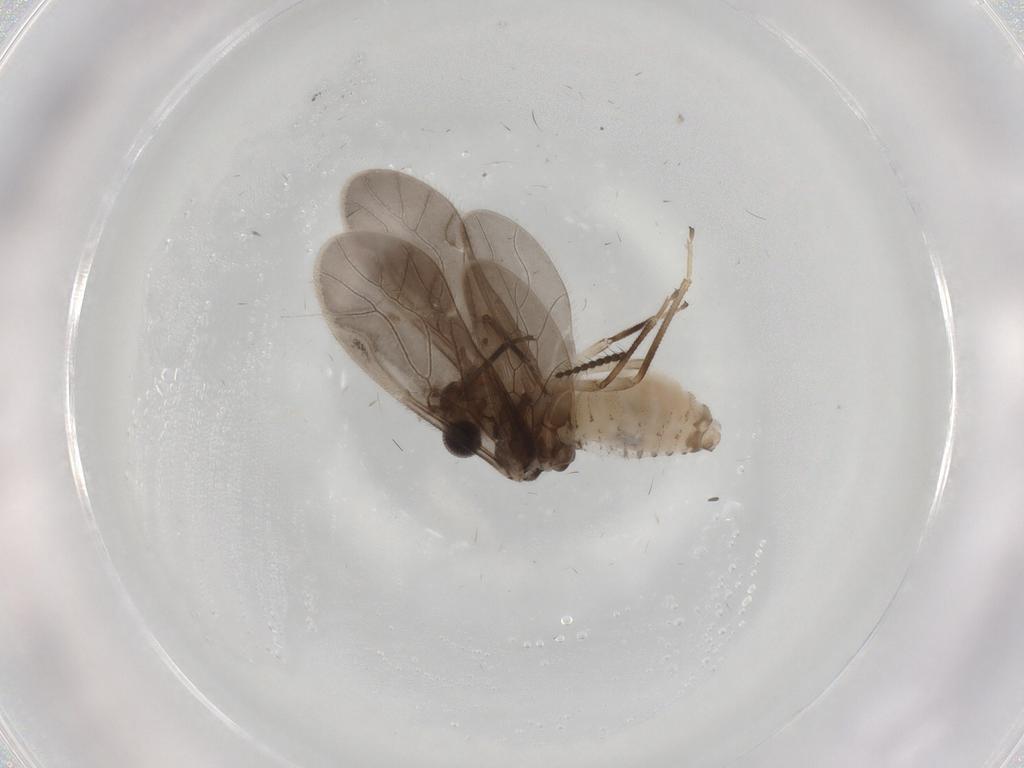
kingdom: Animalia
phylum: Arthropoda
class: Insecta
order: Psocodea
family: Caeciliusidae
